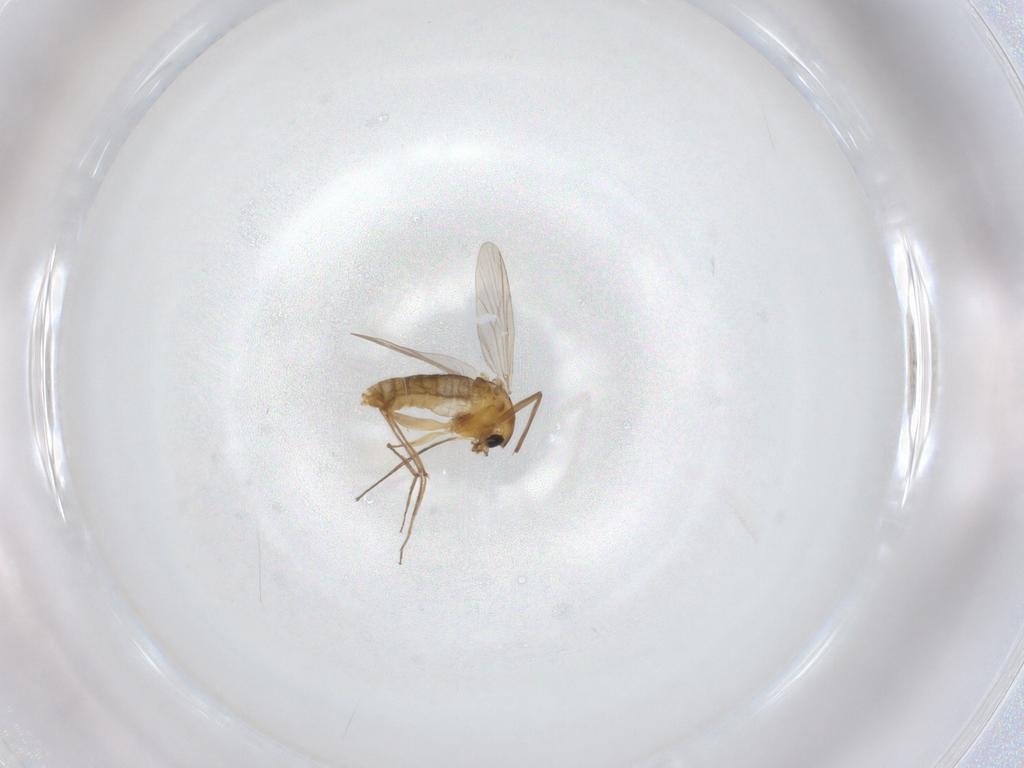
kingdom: Animalia
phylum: Arthropoda
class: Insecta
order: Diptera
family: Chironomidae
